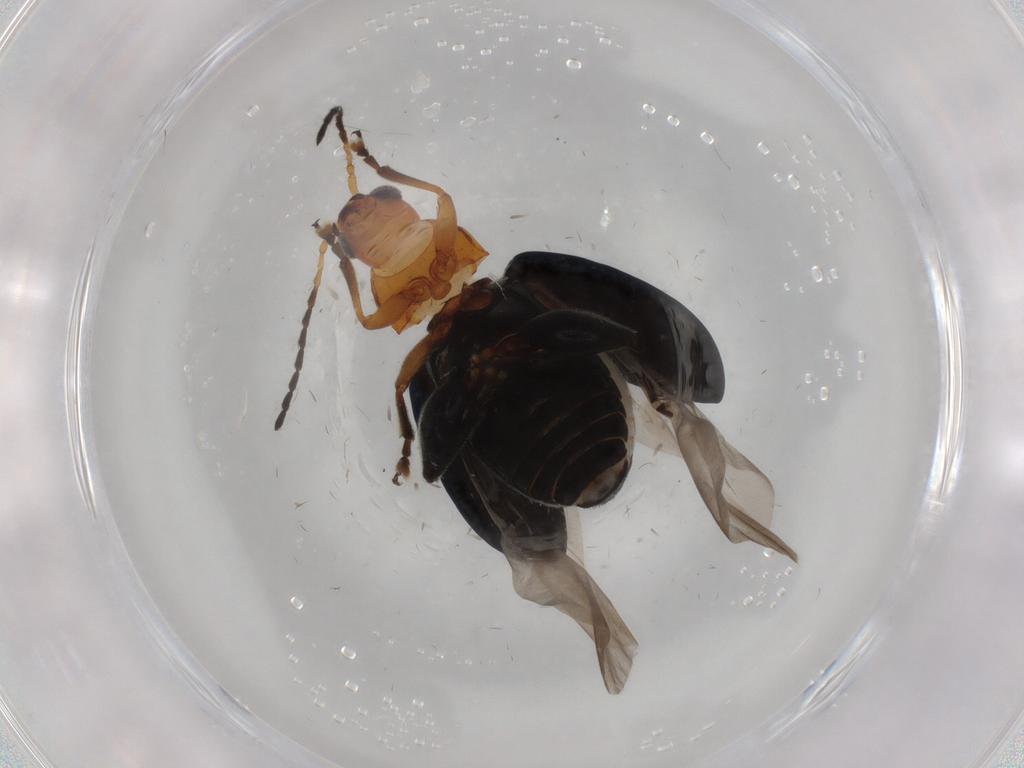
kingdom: Animalia
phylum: Arthropoda
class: Insecta
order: Coleoptera
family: Chrysomelidae
